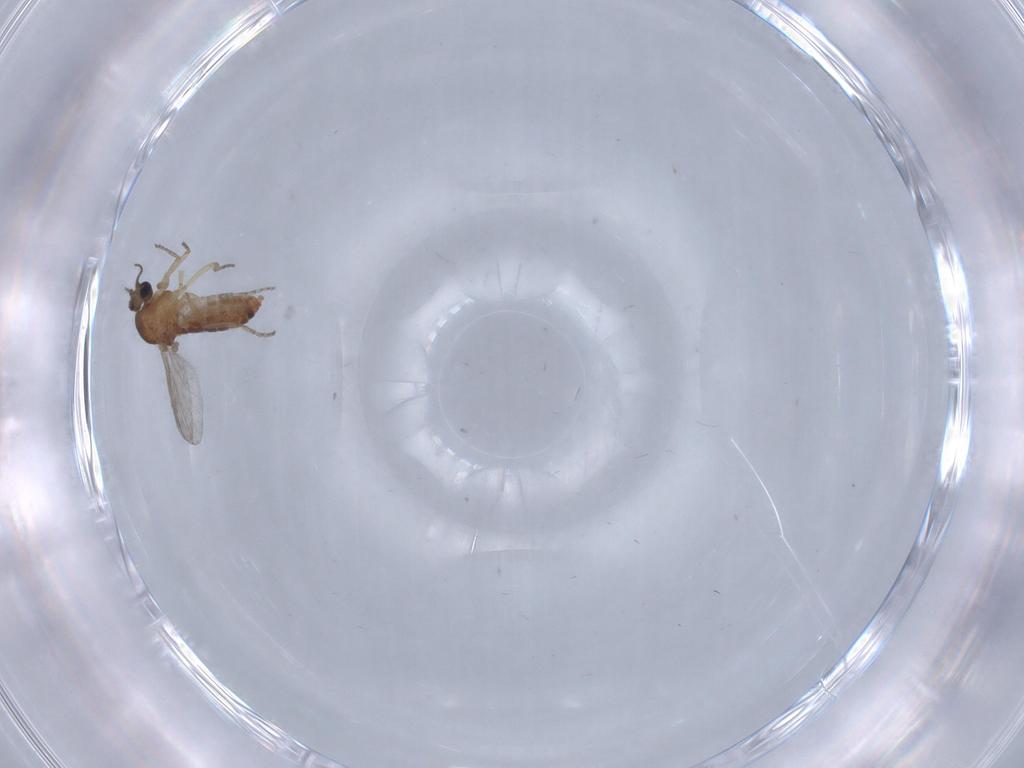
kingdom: Animalia
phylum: Arthropoda
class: Insecta
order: Diptera
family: Ceratopogonidae
